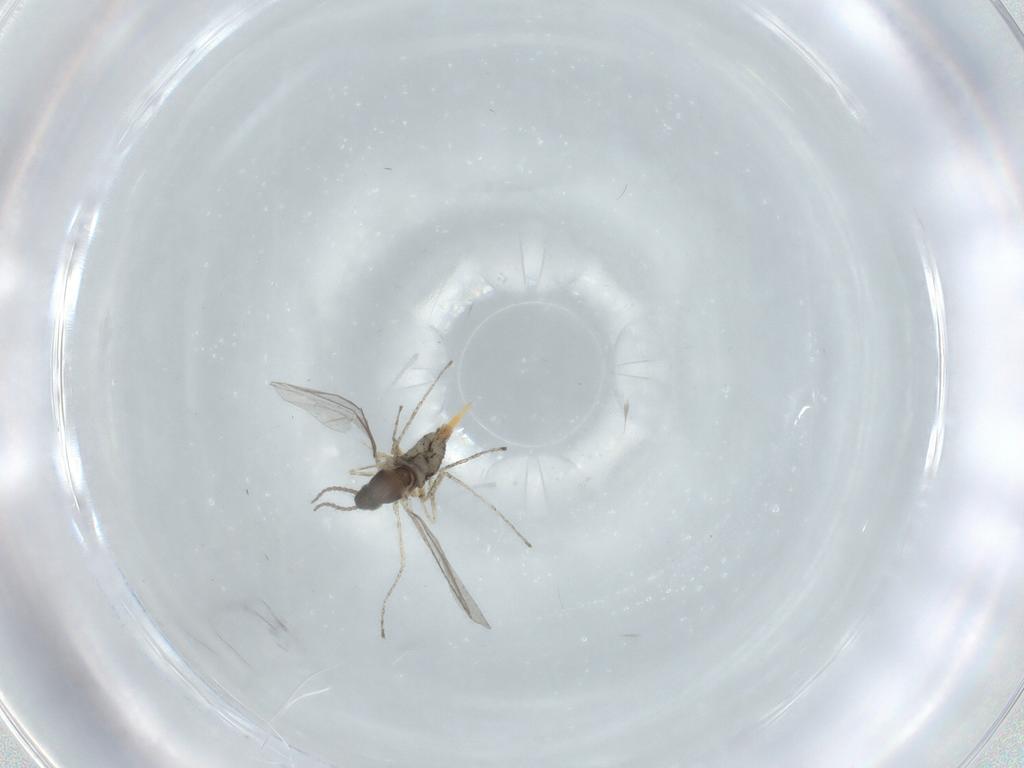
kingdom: Animalia
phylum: Arthropoda
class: Insecta
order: Diptera
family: Cecidomyiidae
